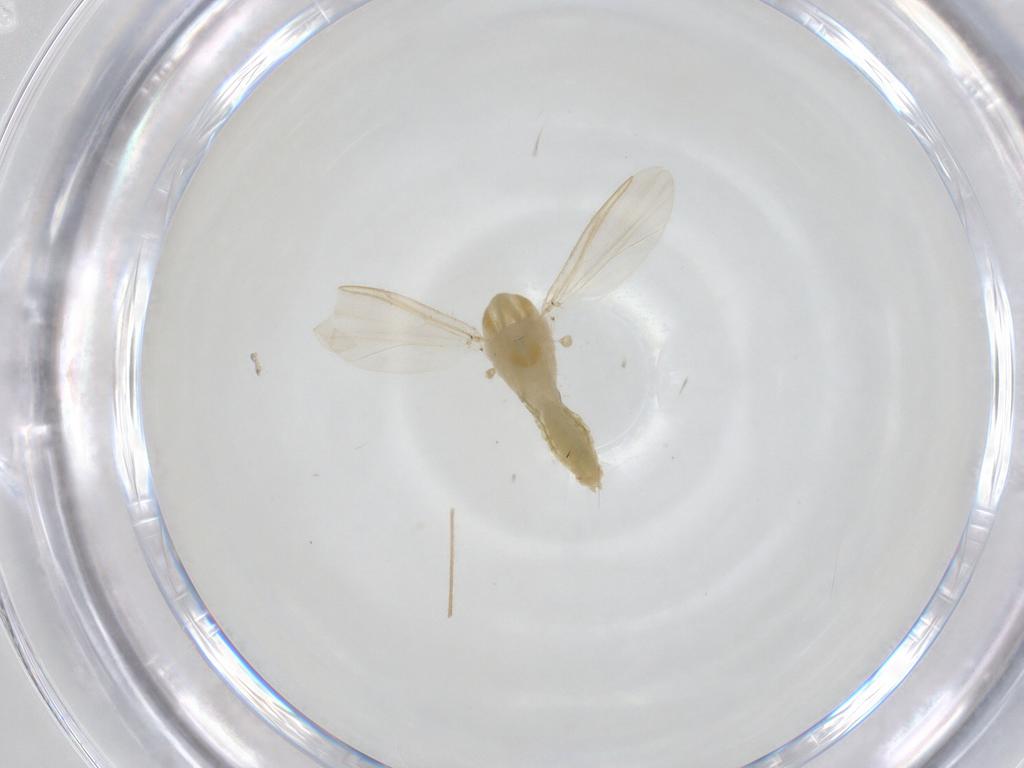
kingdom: Animalia
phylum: Arthropoda
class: Insecta
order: Diptera
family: Chironomidae
